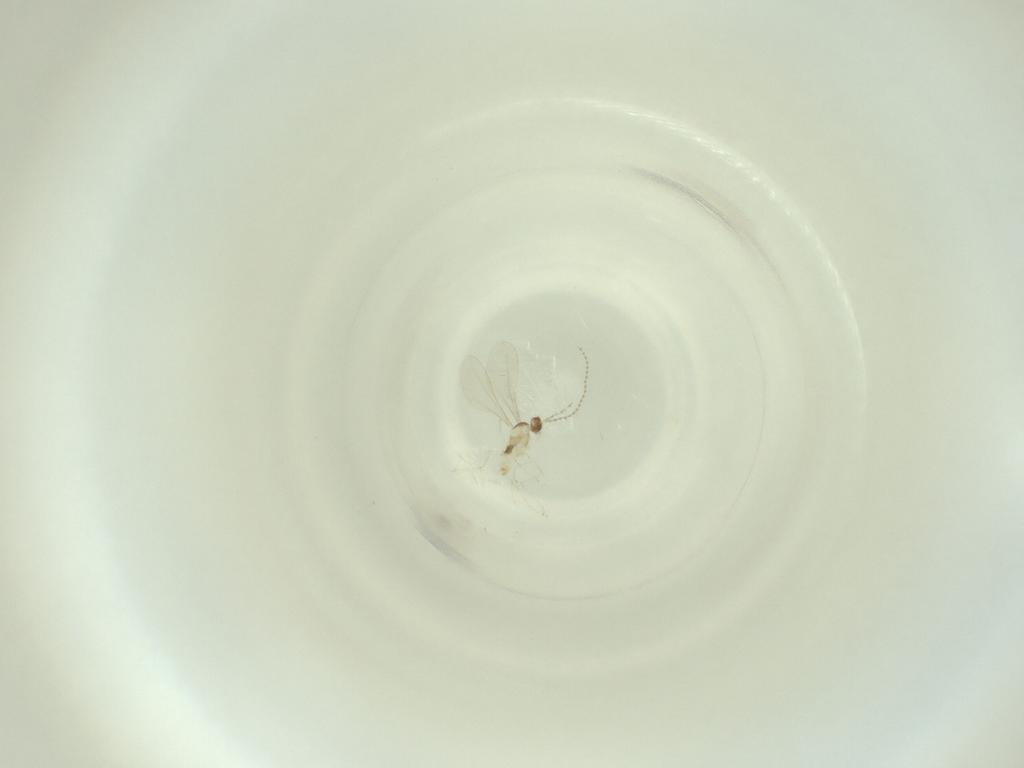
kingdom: Animalia
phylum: Arthropoda
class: Insecta
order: Diptera
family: Cecidomyiidae
